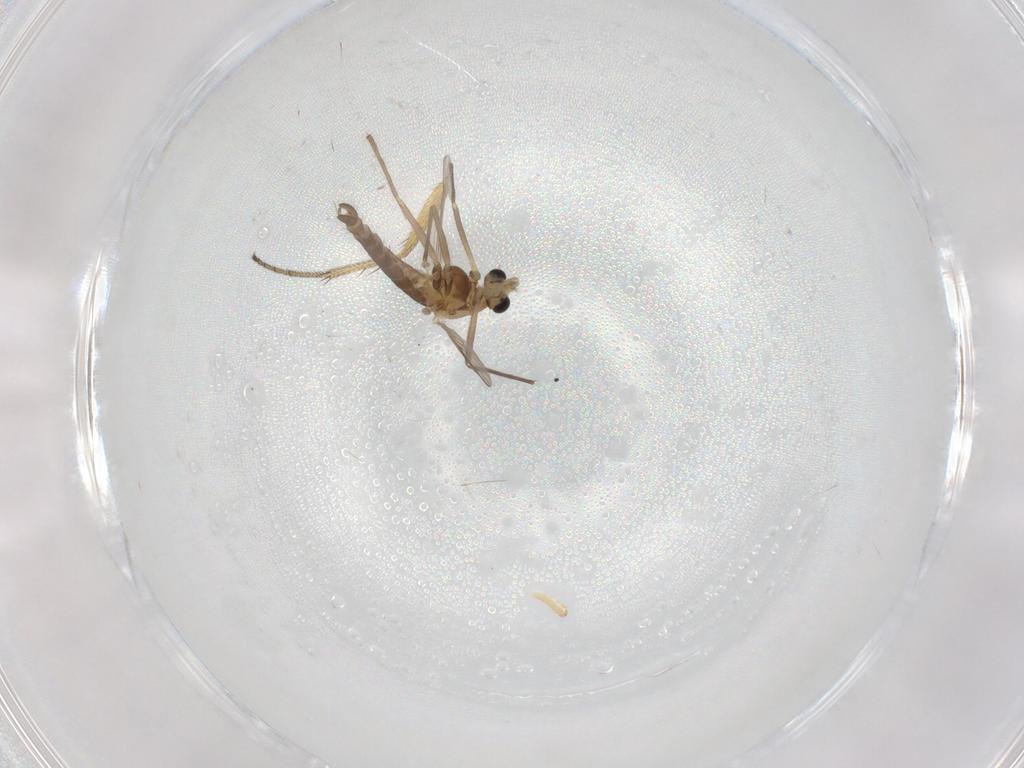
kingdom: Animalia
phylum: Arthropoda
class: Insecta
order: Diptera
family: Chironomidae
